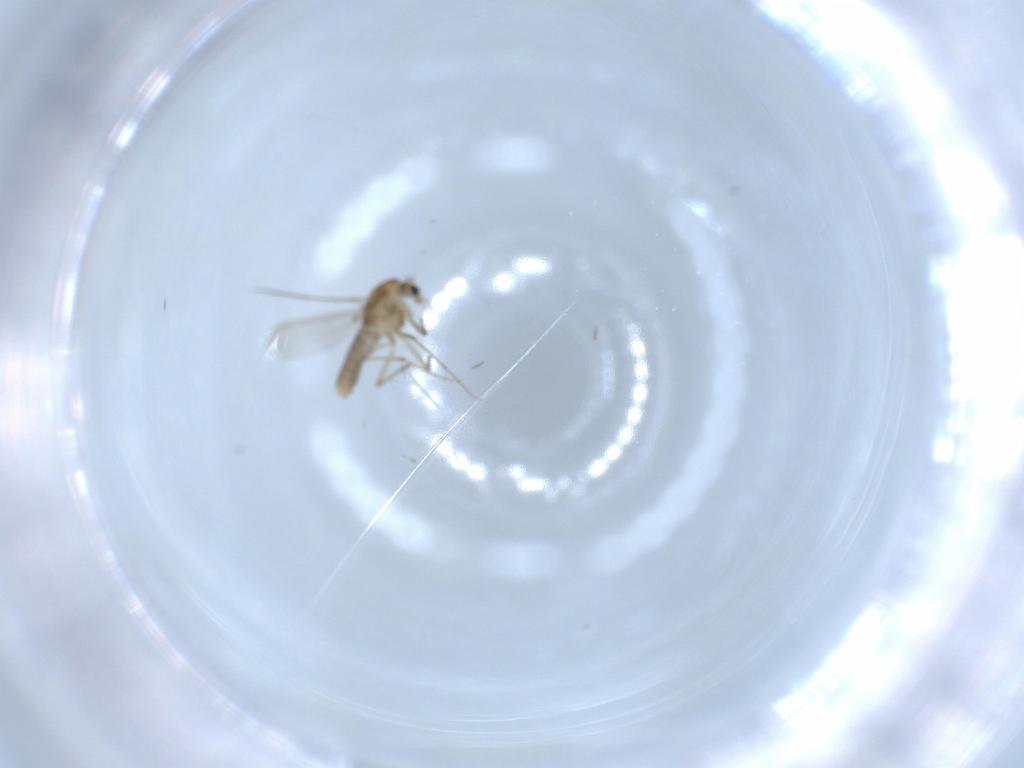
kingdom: Animalia
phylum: Arthropoda
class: Insecta
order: Diptera
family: Chironomidae
